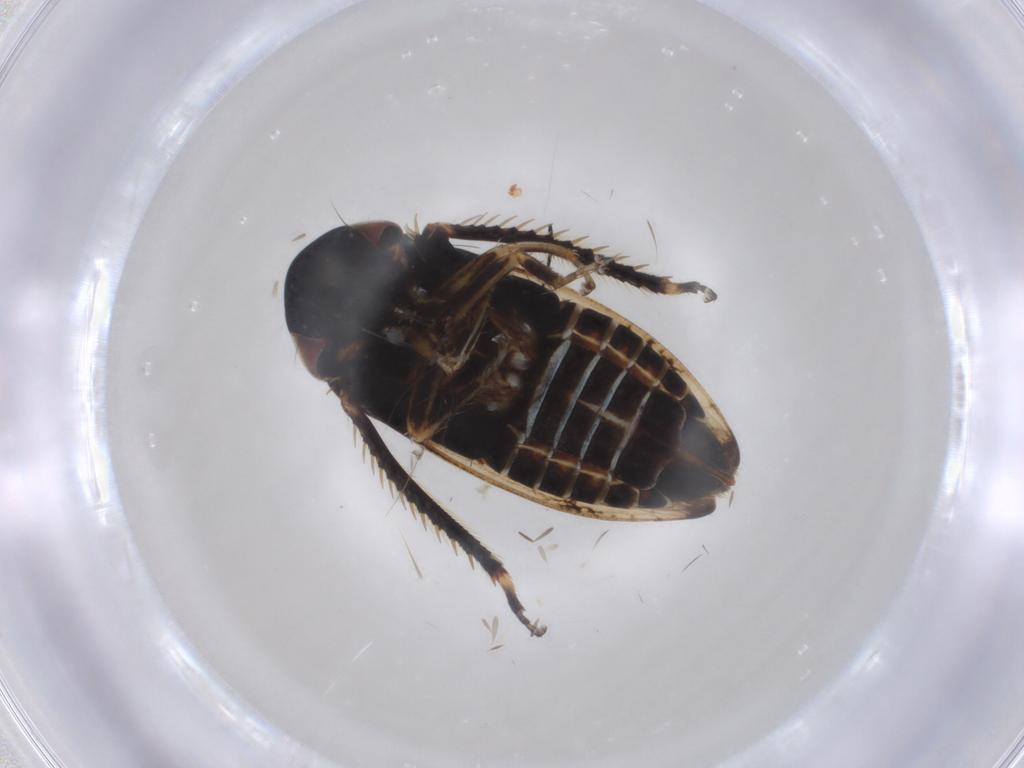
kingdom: Animalia
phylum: Arthropoda
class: Insecta
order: Hemiptera
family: Cicadellidae
